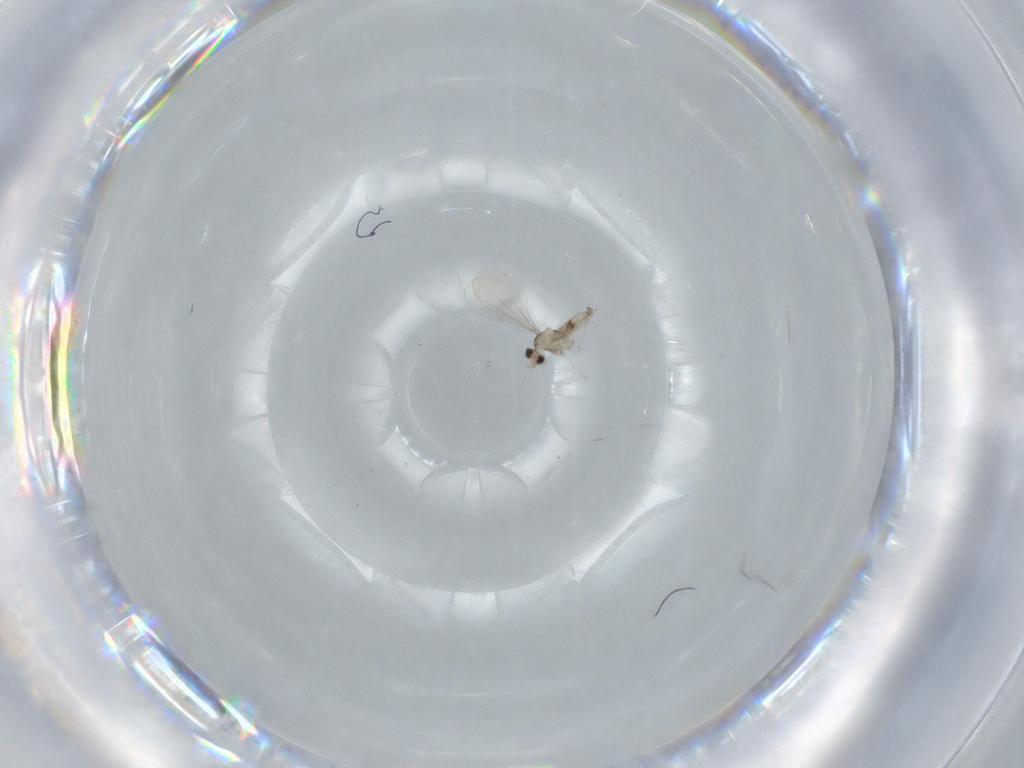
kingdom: Animalia
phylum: Arthropoda
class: Insecta
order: Diptera
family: Cecidomyiidae
